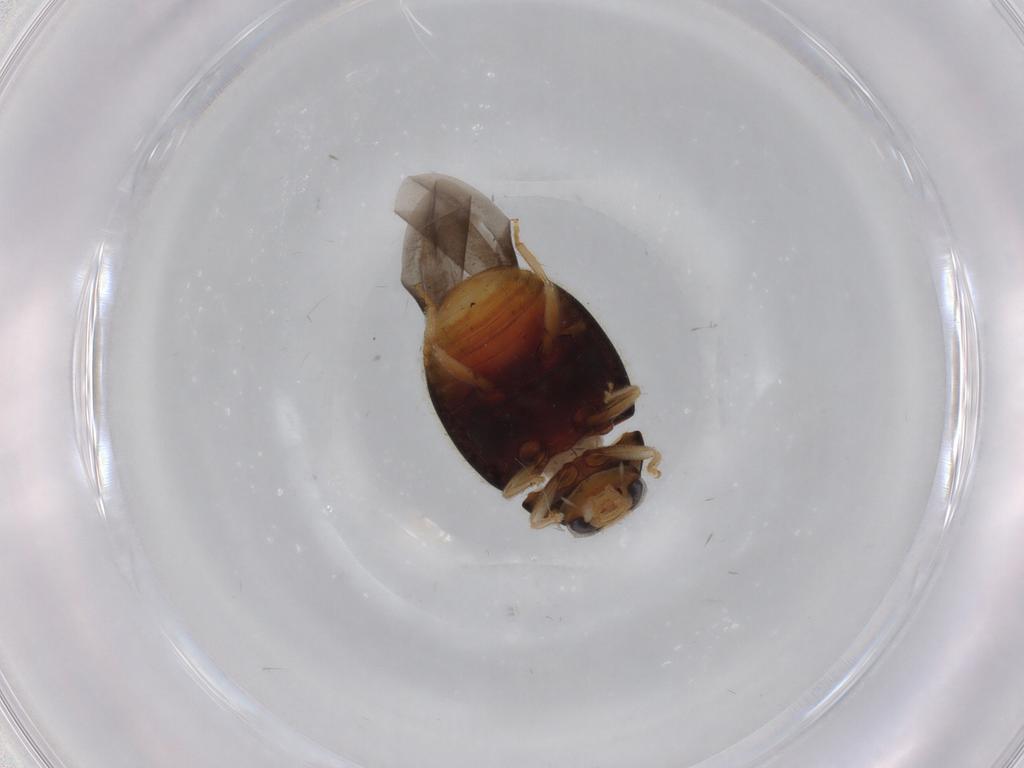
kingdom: Animalia
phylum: Arthropoda
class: Insecta
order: Coleoptera
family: Coccinellidae
